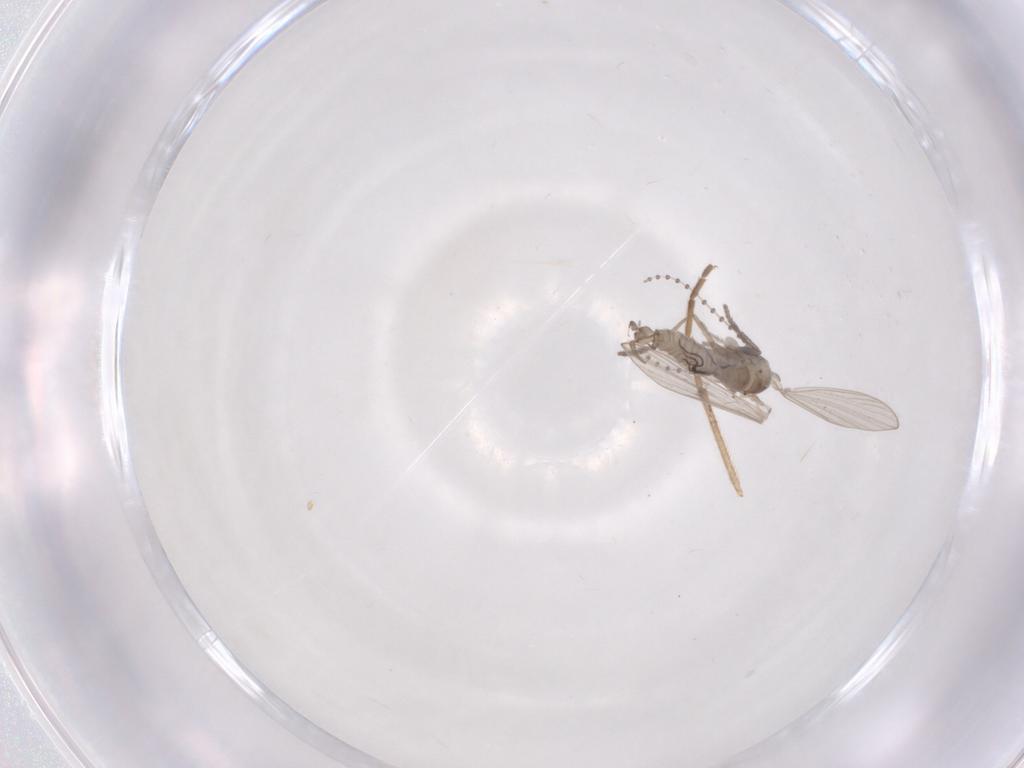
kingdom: Animalia
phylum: Arthropoda
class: Insecta
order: Diptera
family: Psychodidae
